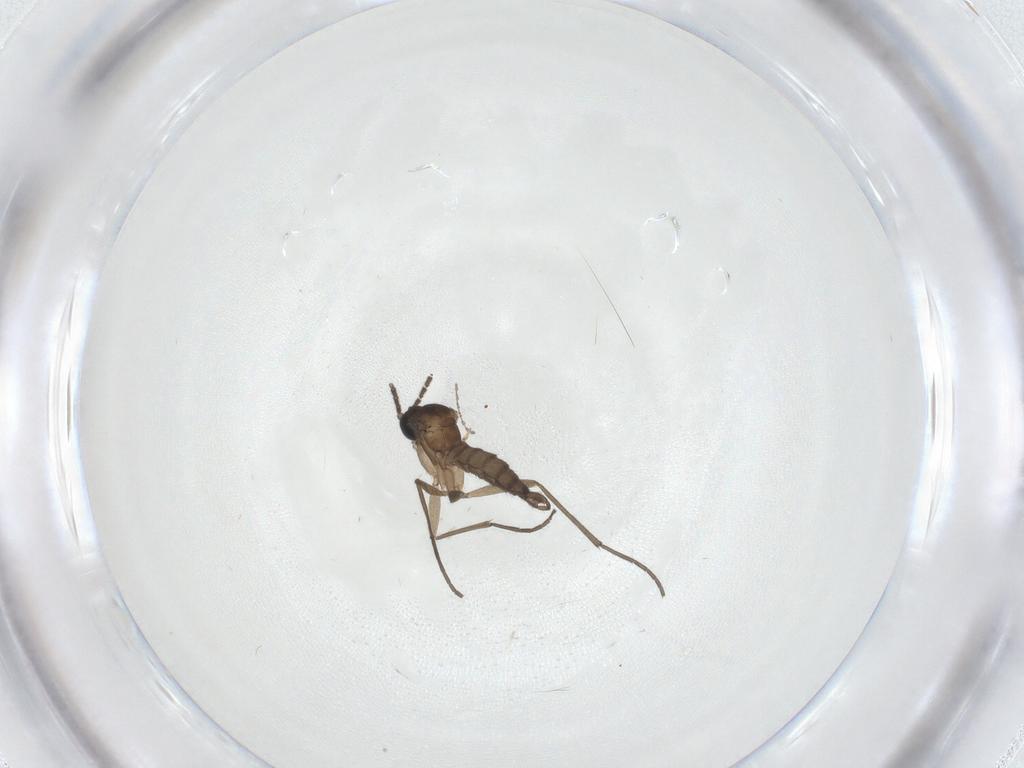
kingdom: Animalia
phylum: Arthropoda
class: Insecta
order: Diptera
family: Sciaridae
